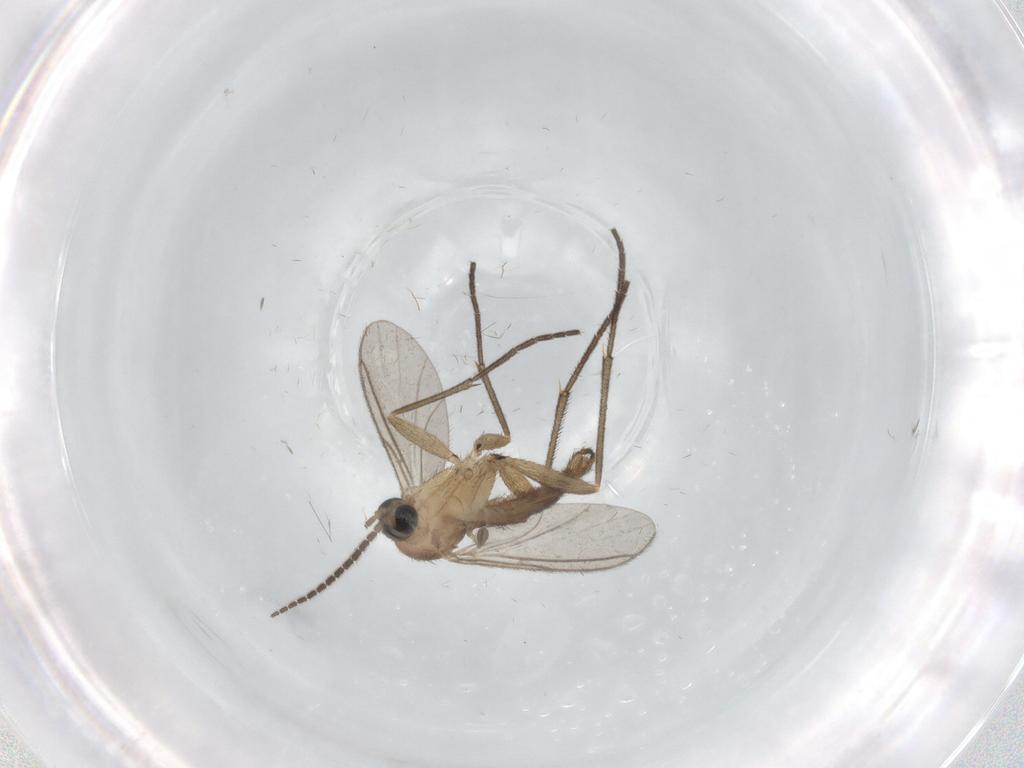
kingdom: Animalia
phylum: Arthropoda
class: Insecta
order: Diptera
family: Sciaridae
